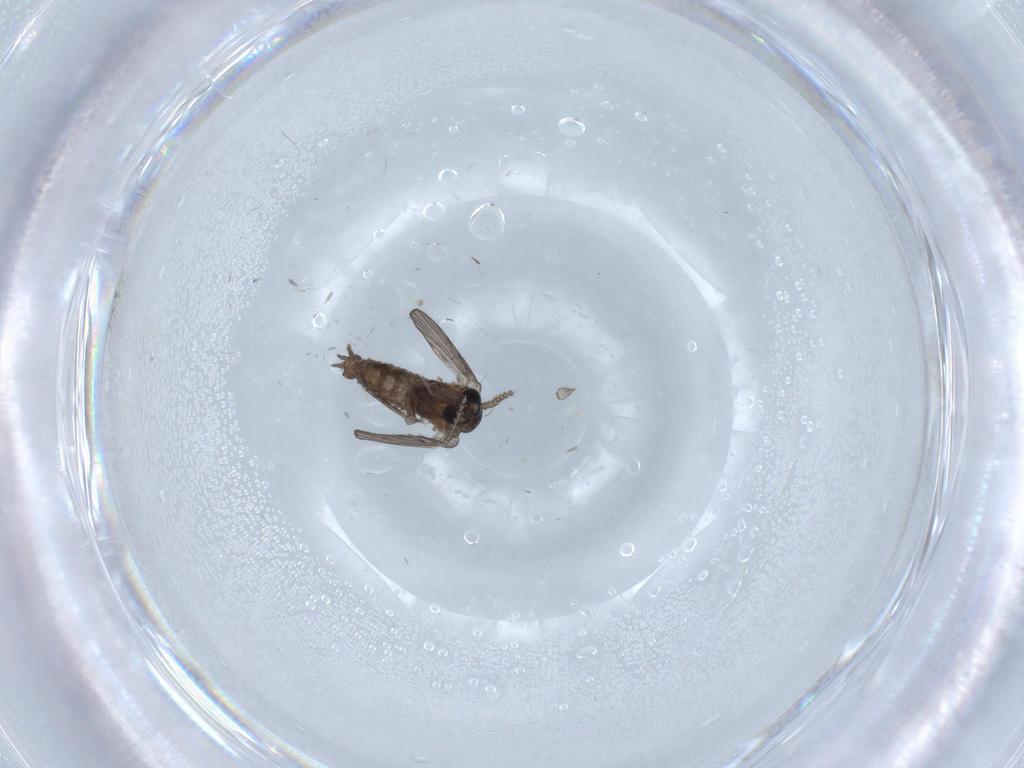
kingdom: Animalia
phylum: Arthropoda
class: Insecta
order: Diptera
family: Psychodidae
